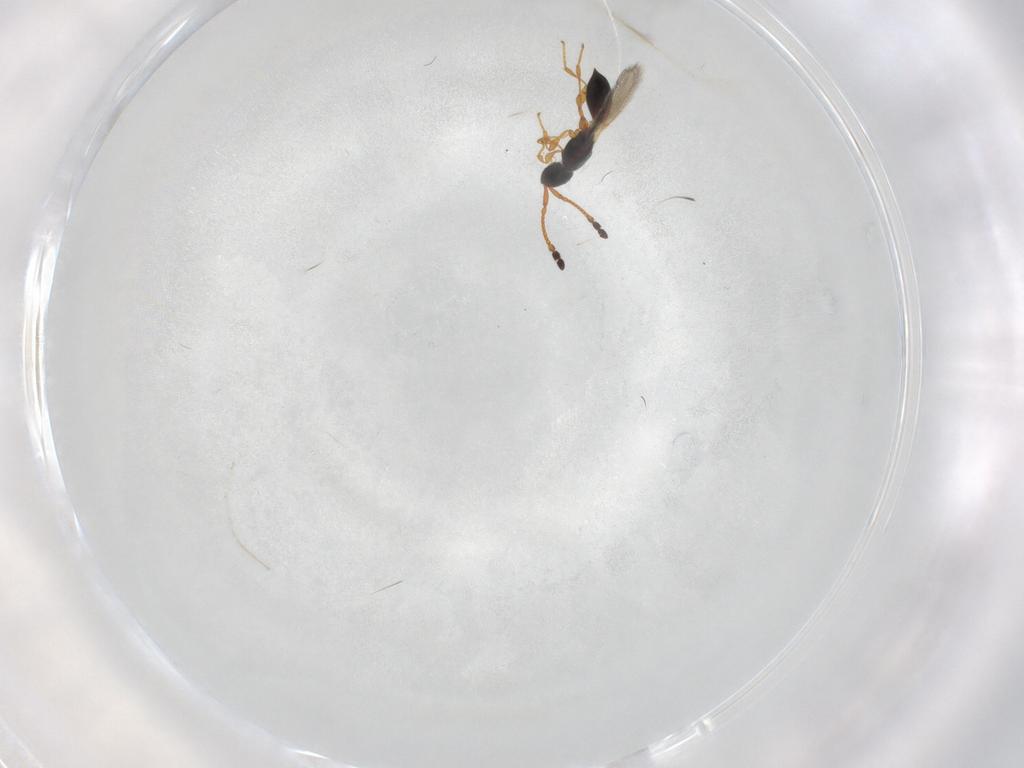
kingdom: Animalia
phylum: Arthropoda
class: Insecta
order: Hymenoptera
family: Diapriidae
